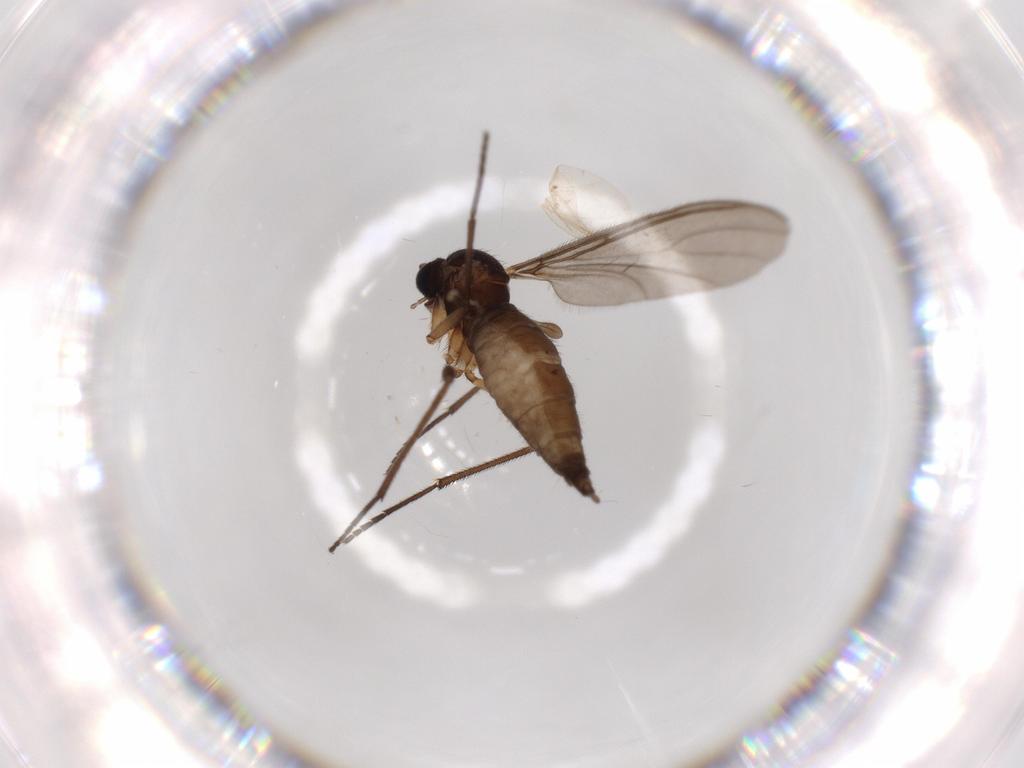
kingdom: Animalia
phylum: Arthropoda
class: Insecta
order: Diptera
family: Sciaridae
